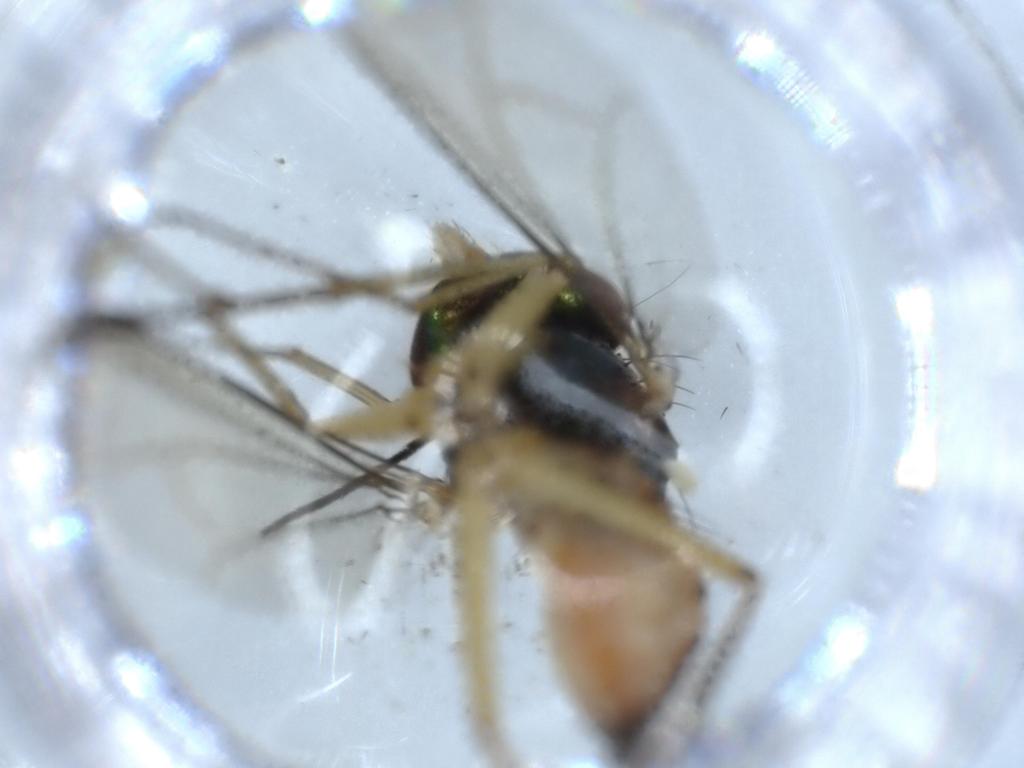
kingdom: Animalia
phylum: Arthropoda
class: Insecta
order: Diptera
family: Dolichopodidae
